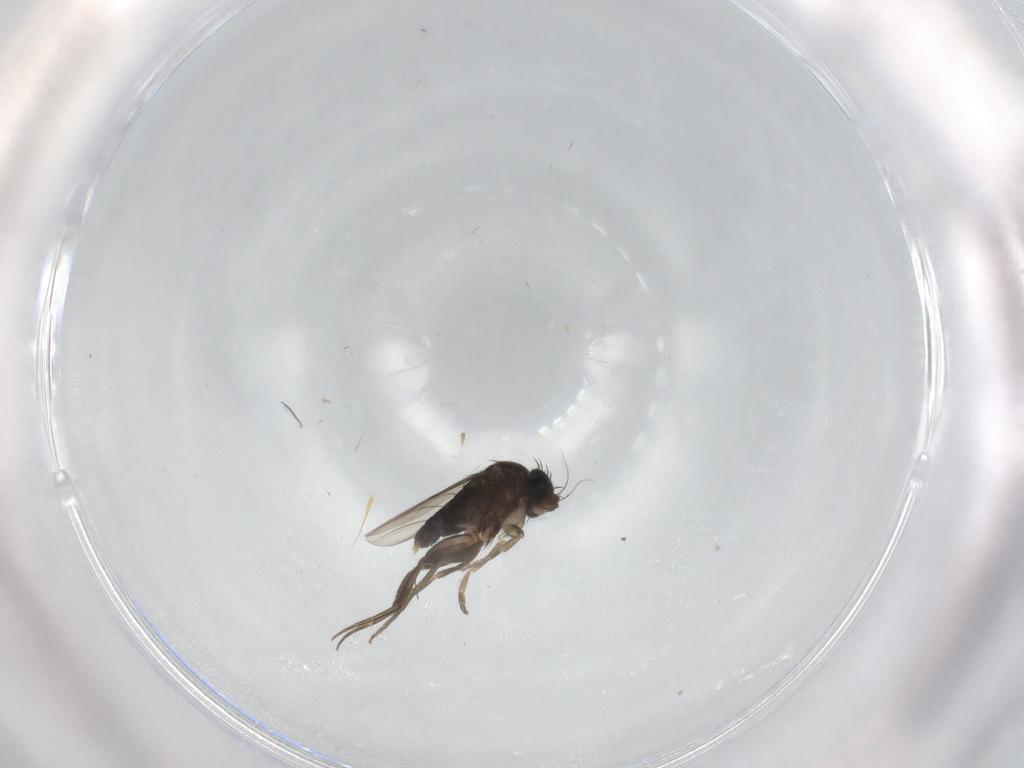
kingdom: Animalia
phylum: Arthropoda
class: Insecta
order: Diptera
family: Phoridae
